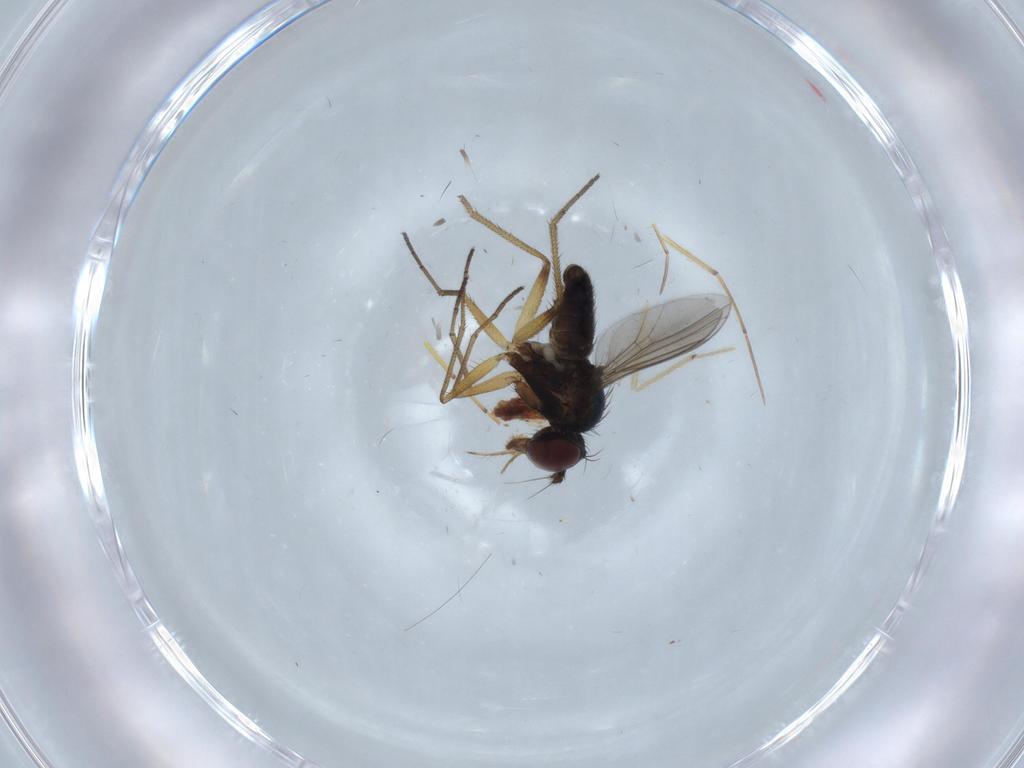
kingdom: Animalia
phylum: Arthropoda
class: Insecta
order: Diptera
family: Dolichopodidae
